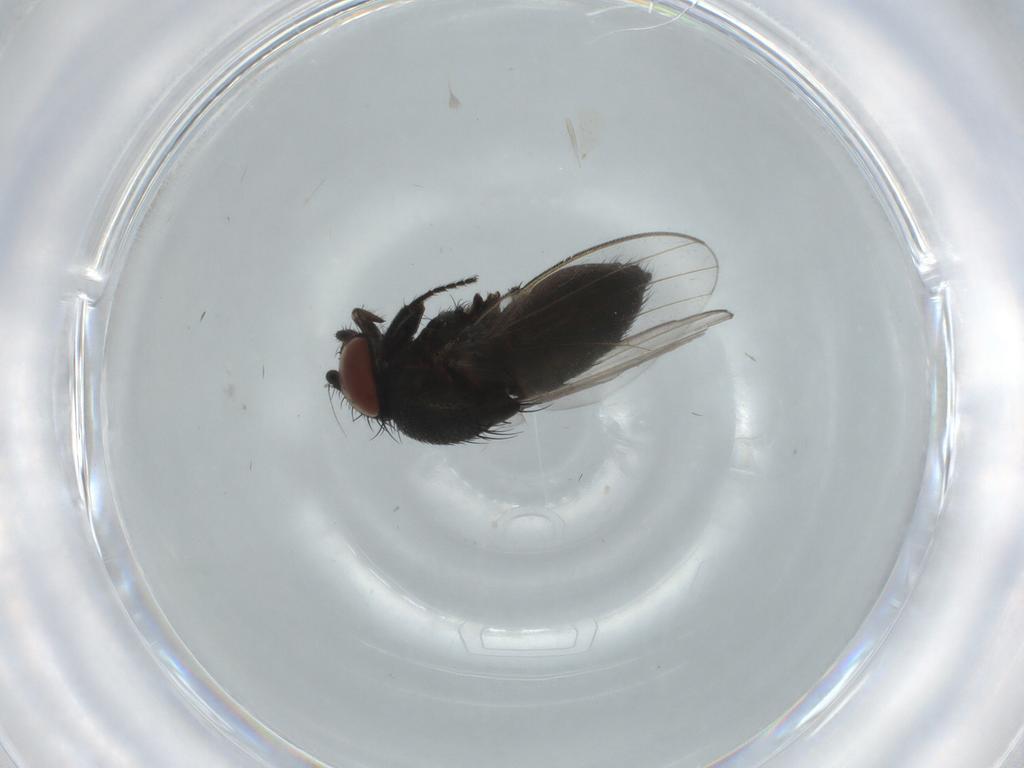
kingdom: Animalia
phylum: Arthropoda
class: Insecta
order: Diptera
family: Milichiidae
